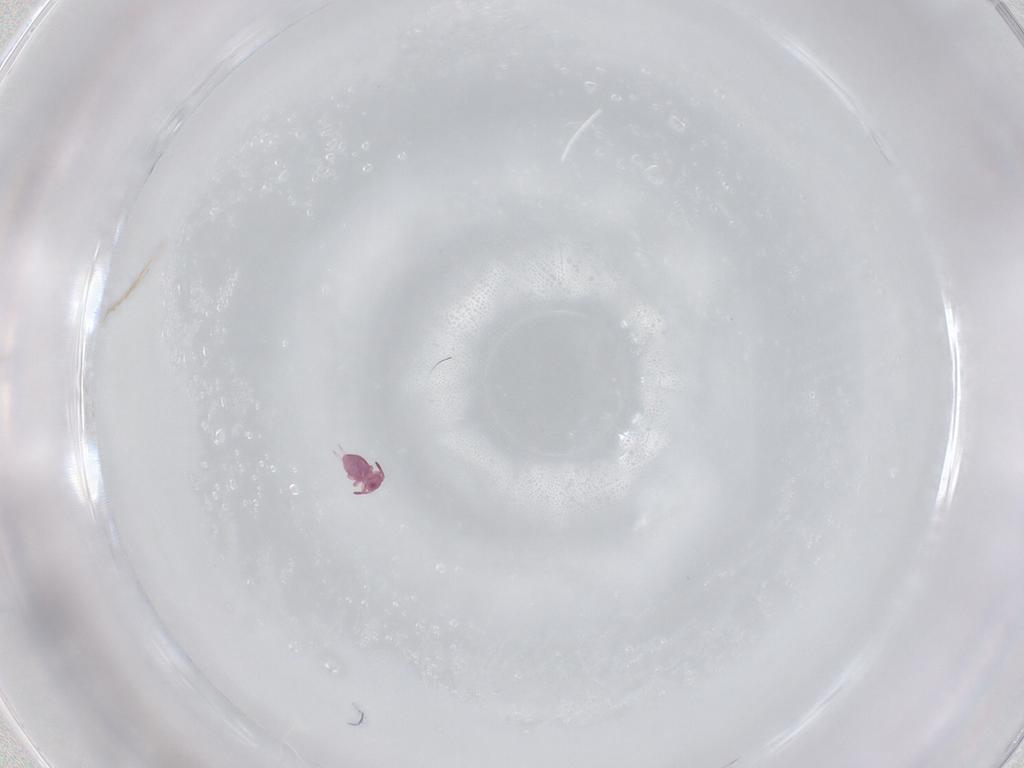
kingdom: Animalia
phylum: Arthropoda
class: Collembola
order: Symphypleona
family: Sminthurididae
